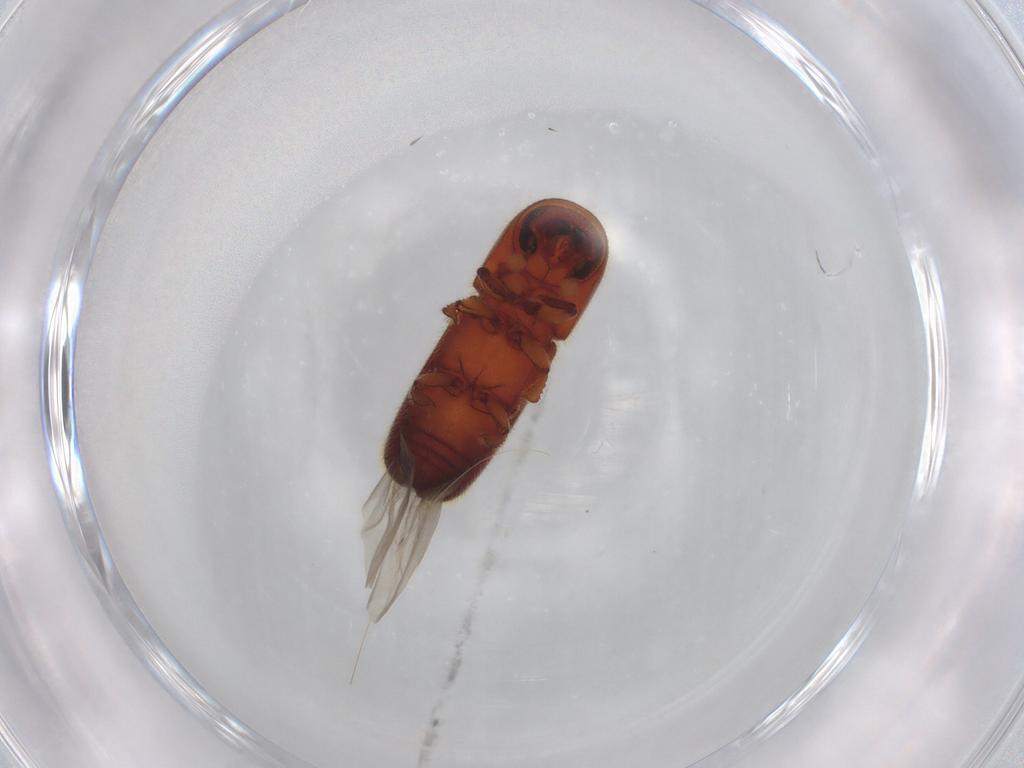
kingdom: Animalia
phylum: Arthropoda
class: Insecta
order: Coleoptera
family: Curculionidae
